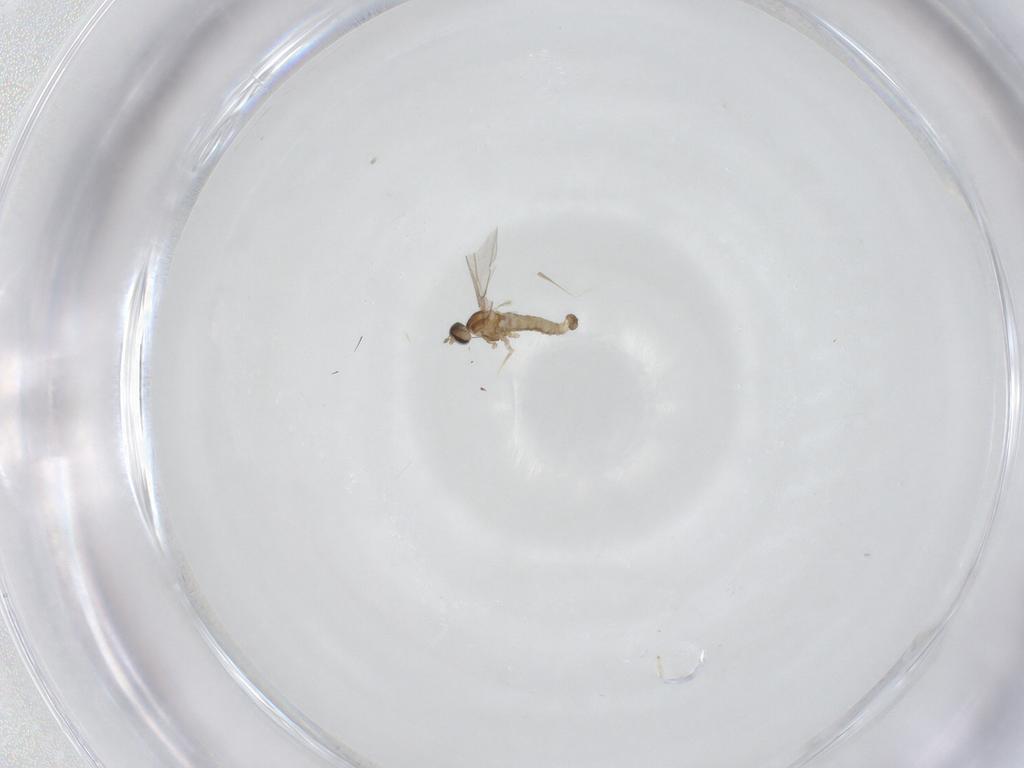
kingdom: Animalia
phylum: Arthropoda
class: Insecta
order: Diptera
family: Cecidomyiidae
